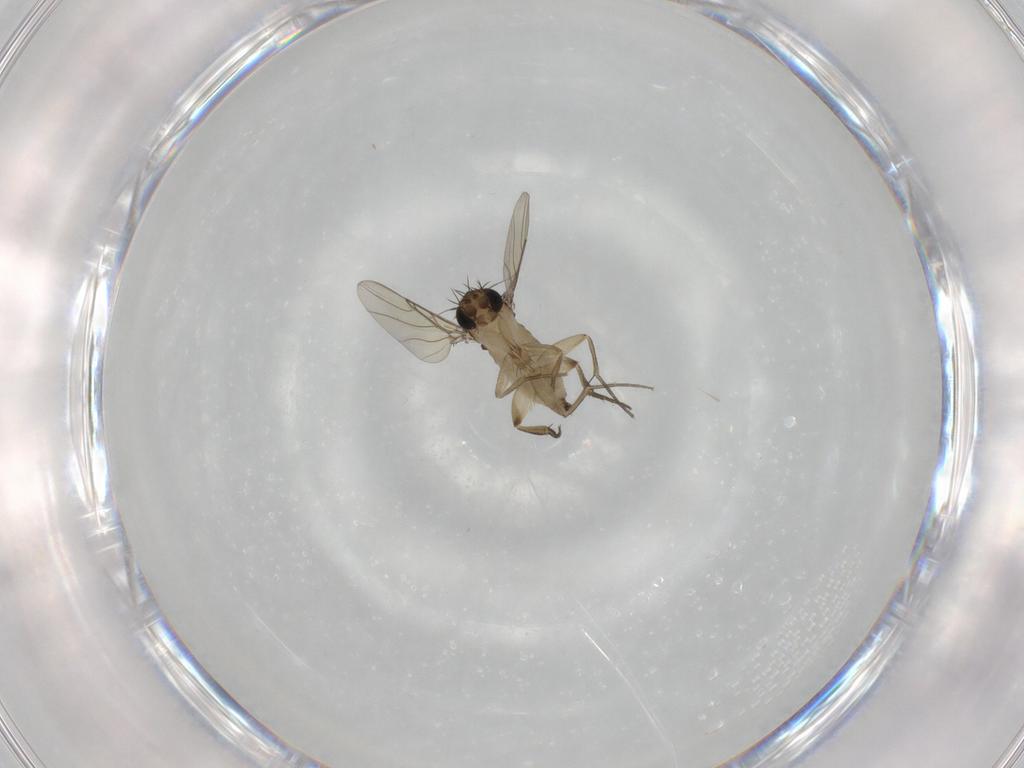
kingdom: Animalia
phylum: Arthropoda
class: Insecta
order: Diptera
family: Phoridae
